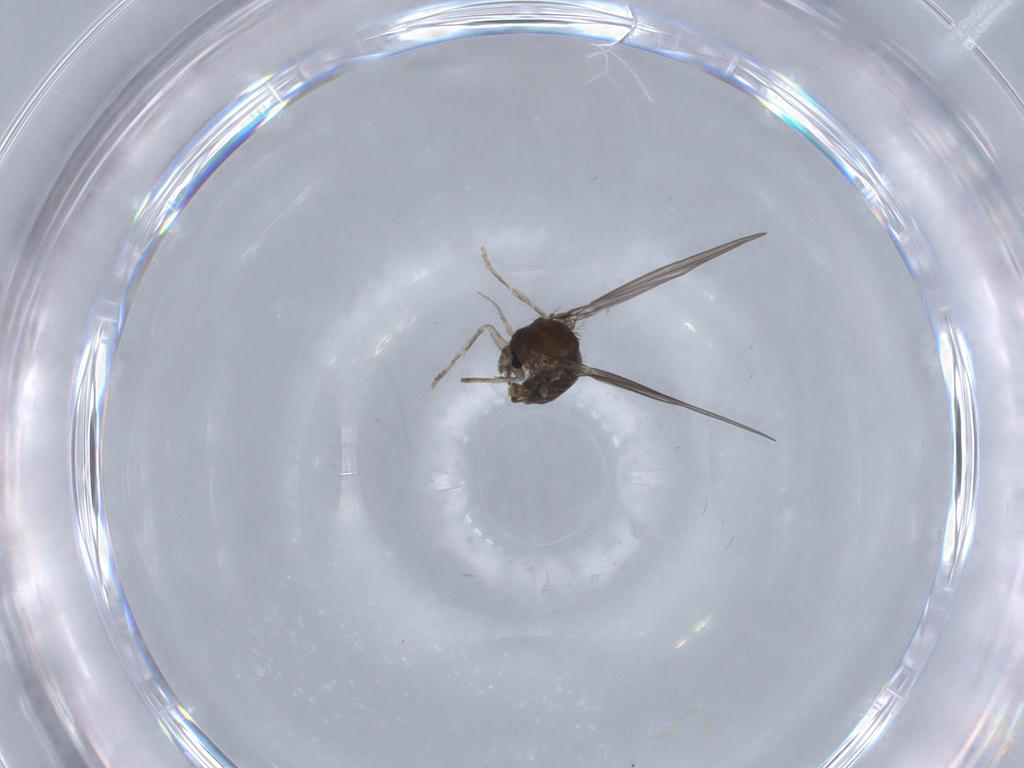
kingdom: Animalia
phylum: Arthropoda
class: Insecta
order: Diptera
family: Psychodidae
